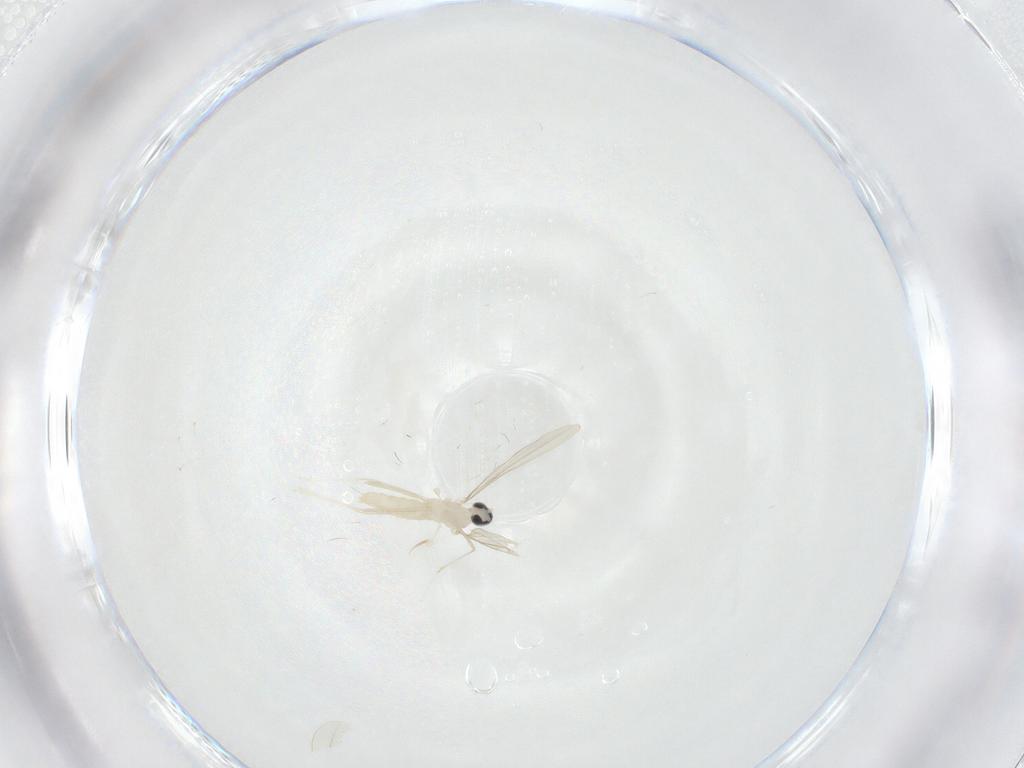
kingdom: Animalia
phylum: Arthropoda
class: Insecta
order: Diptera
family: Cecidomyiidae
